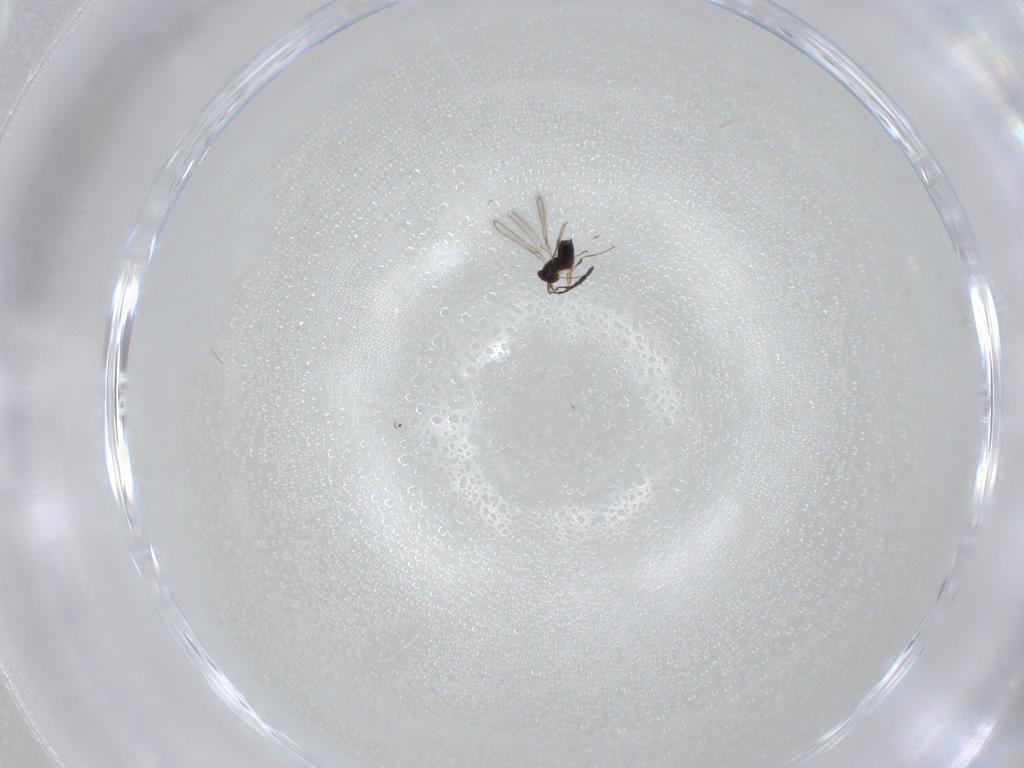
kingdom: Animalia
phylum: Arthropoda
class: Insecta
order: Hymenoptera
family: Mymaridae
